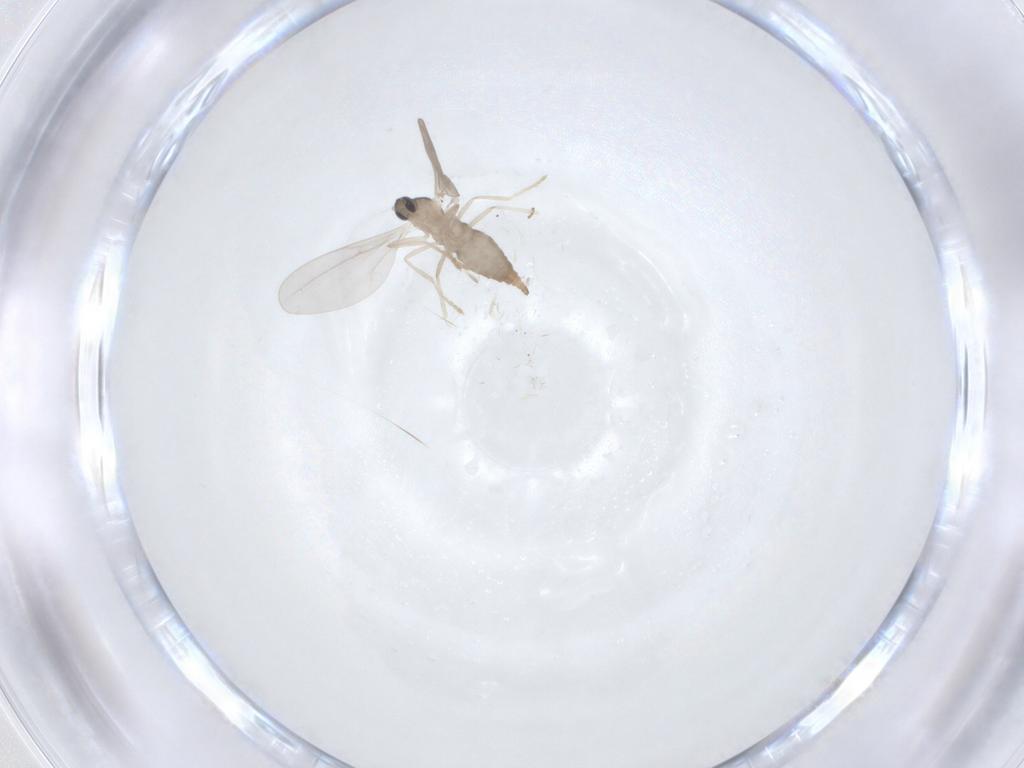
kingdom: Animalia
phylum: Arthropoda
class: Insecta
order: Diptera
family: Cecidomyiidae
